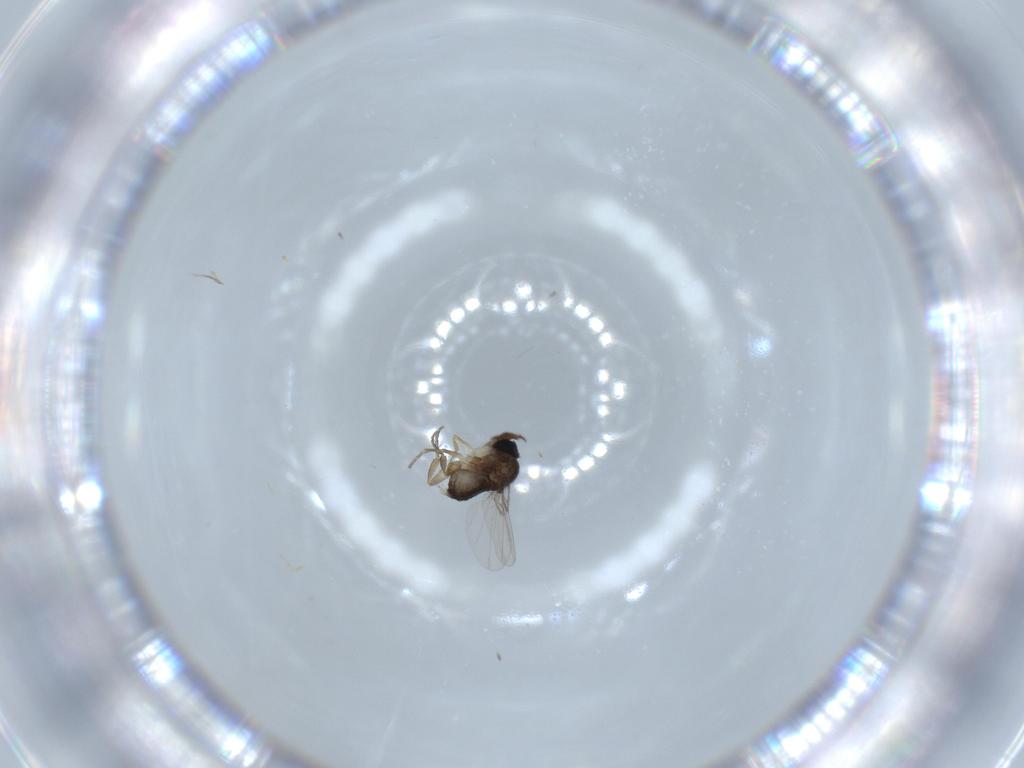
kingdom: Animalia
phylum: Arthropoda
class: Insecta
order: Diptera
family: Phoridae
